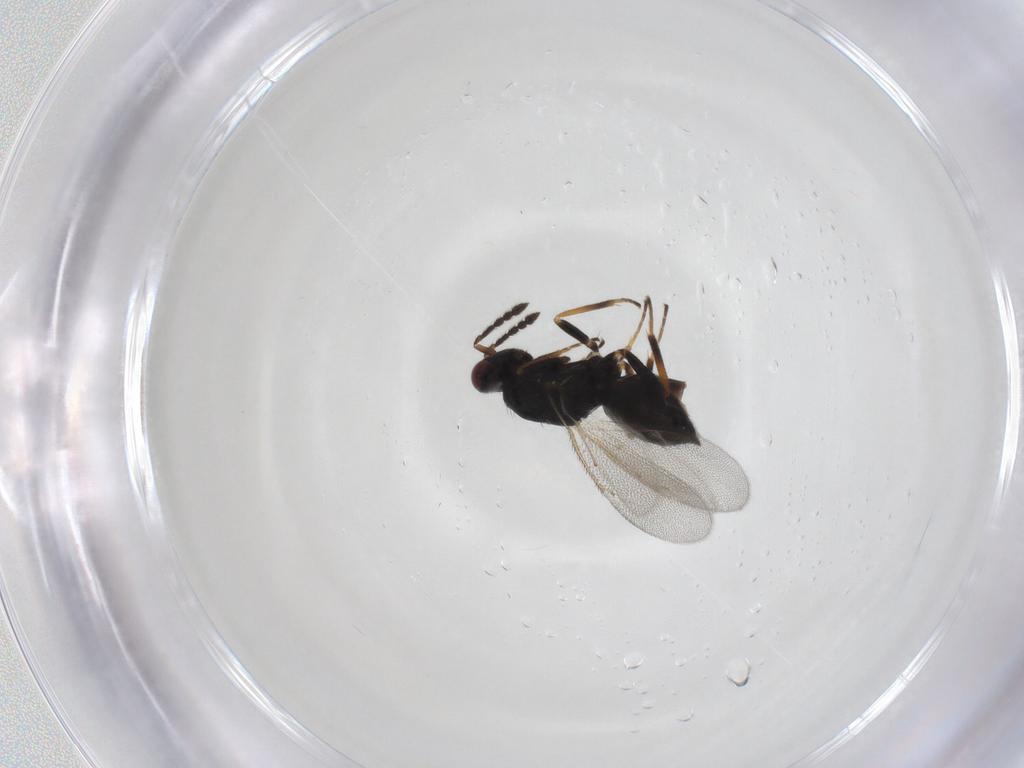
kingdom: Animalia
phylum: Arthropoda
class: Insecta
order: Hymenoptera
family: Eulophidae
